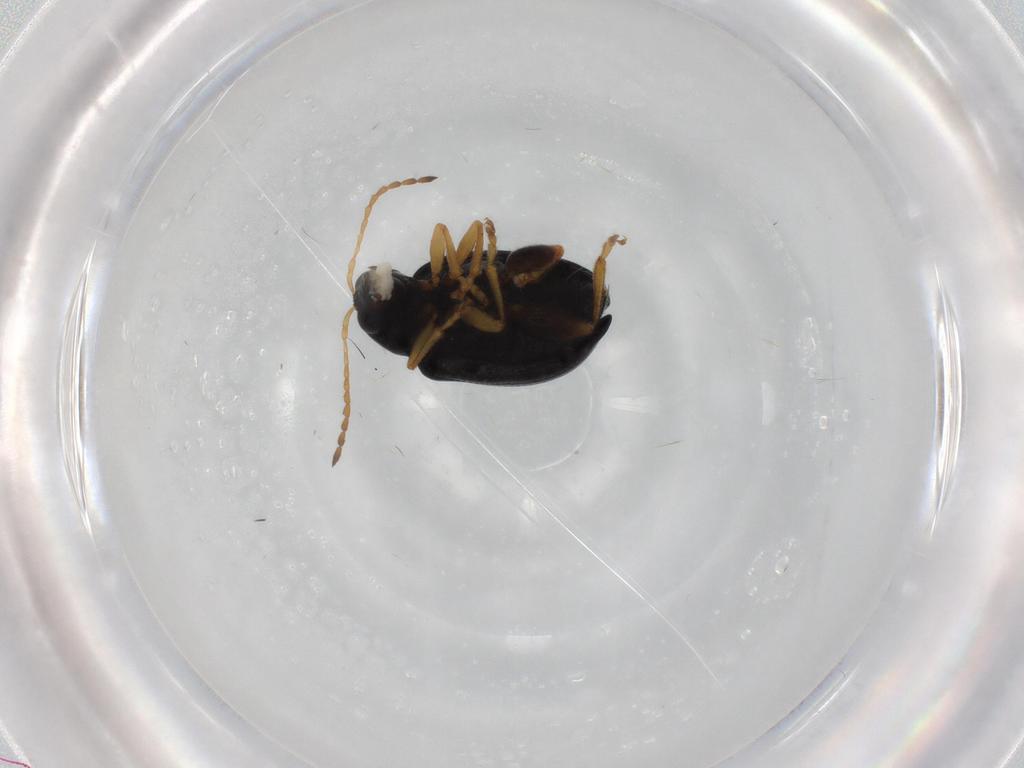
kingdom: Animalia
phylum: Arthropoda
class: Insecta
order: Coleoptera
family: Chrysomelidae
